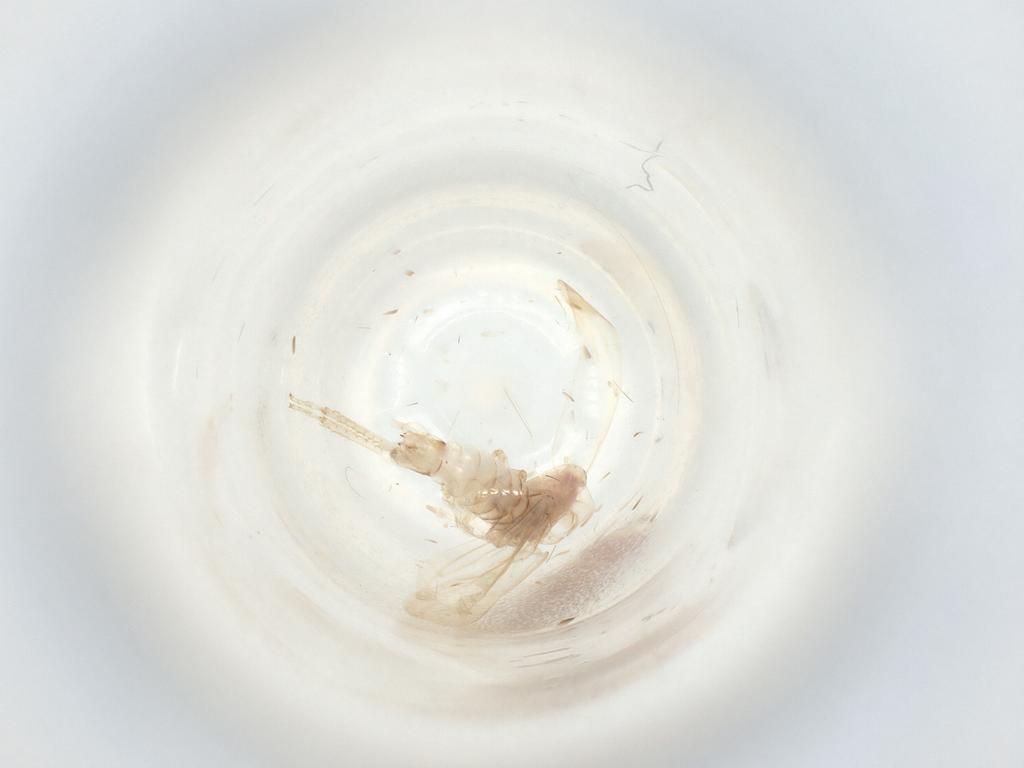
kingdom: Animalia
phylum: Arthropoda
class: Insecta
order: Hemiptera
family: Cicadellidae
